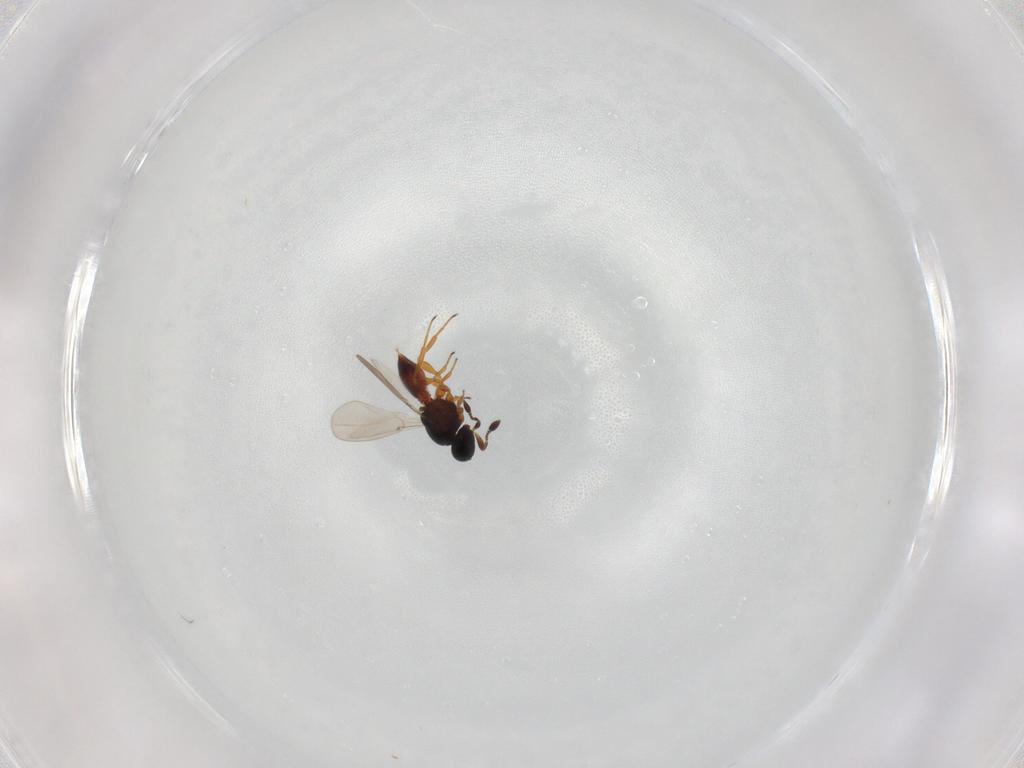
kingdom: Animalia
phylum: Arthropoda
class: Insecta
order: Hymenoptera
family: Platygastridae
